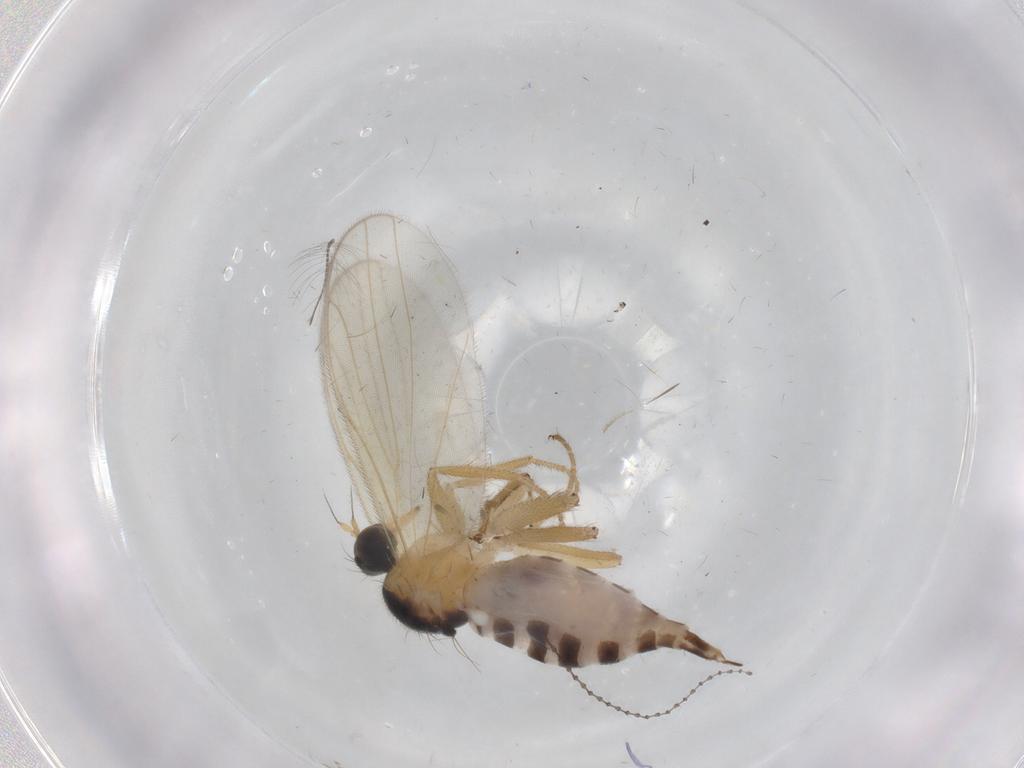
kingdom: Animalia
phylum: Arthropoda
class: Insecta
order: Diptera
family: Hybotidae
